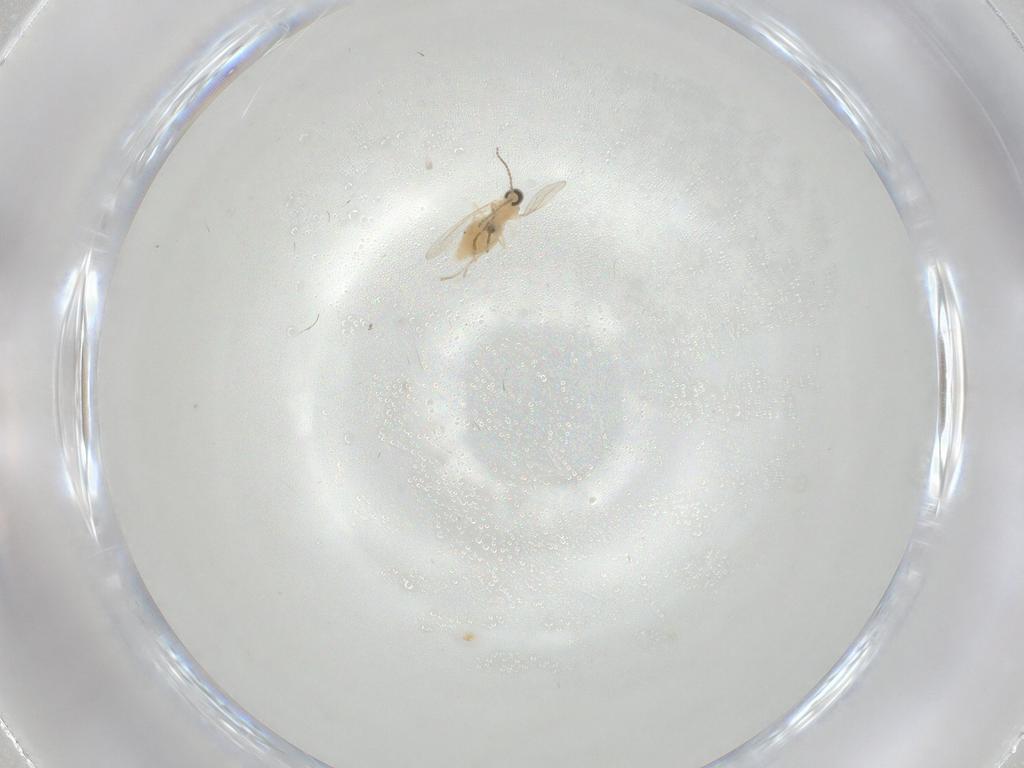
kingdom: Animalia
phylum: Arthropoda
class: Insecta
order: Diptera
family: Cecidomyiidae
